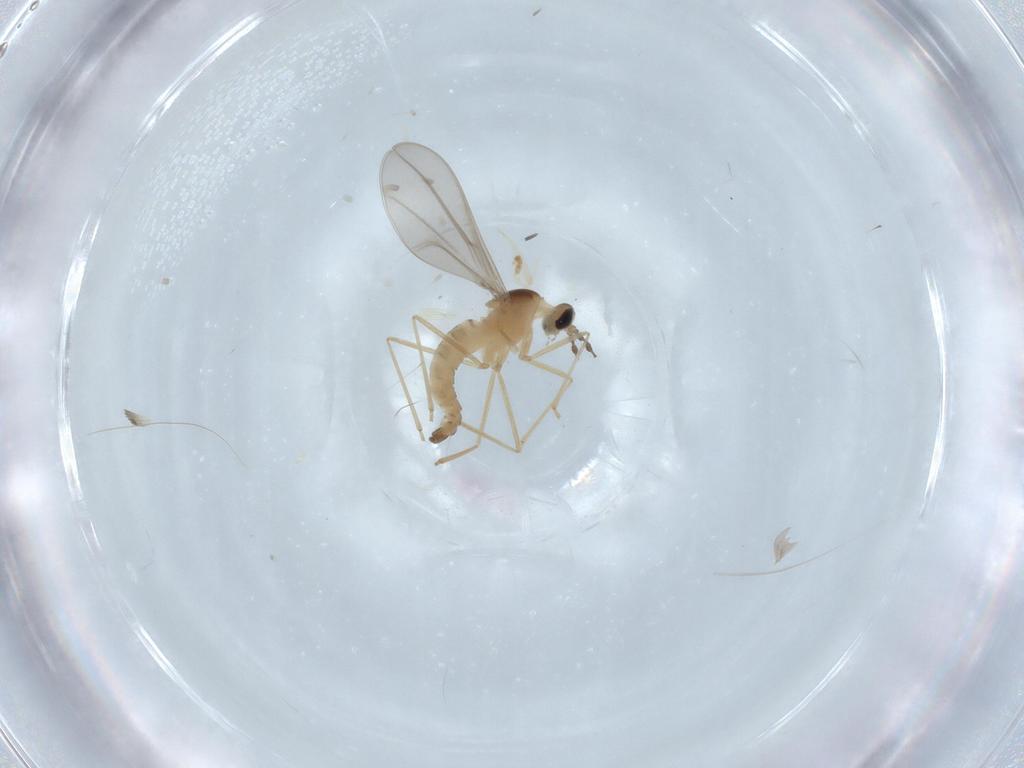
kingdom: Animalia
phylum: Arthropoda
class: Insecta
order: Diptera
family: Cecidomyiidae
